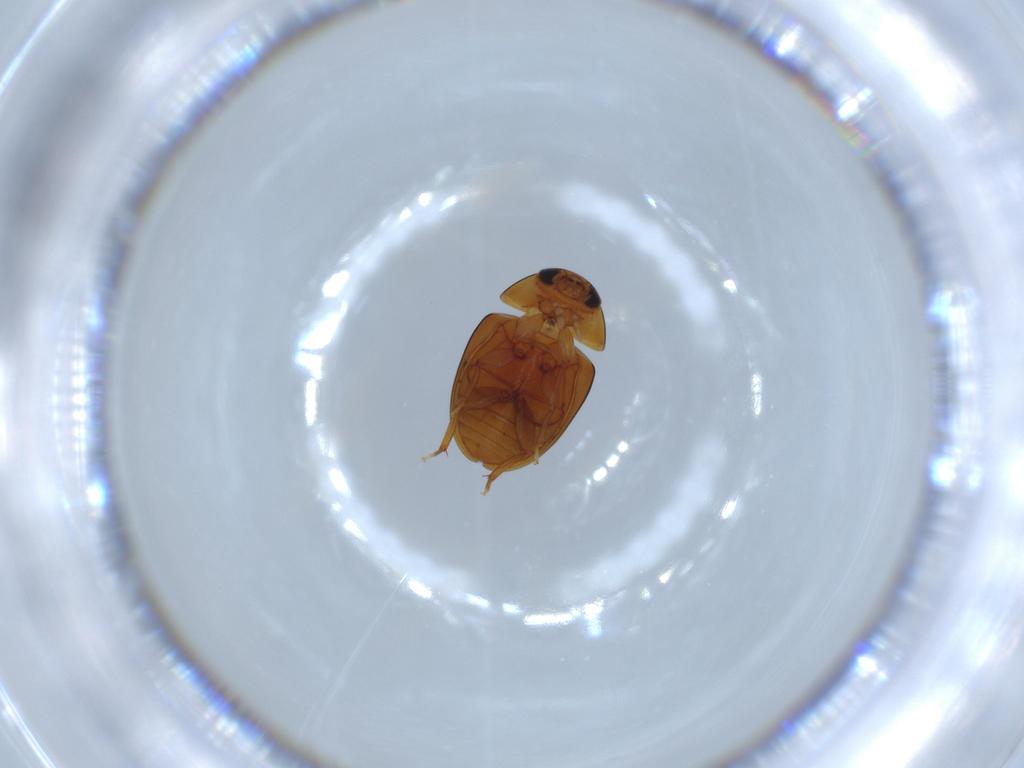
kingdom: Animalia
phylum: Arthropoda
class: Insecta
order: Coleoptera
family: Phalacridae
